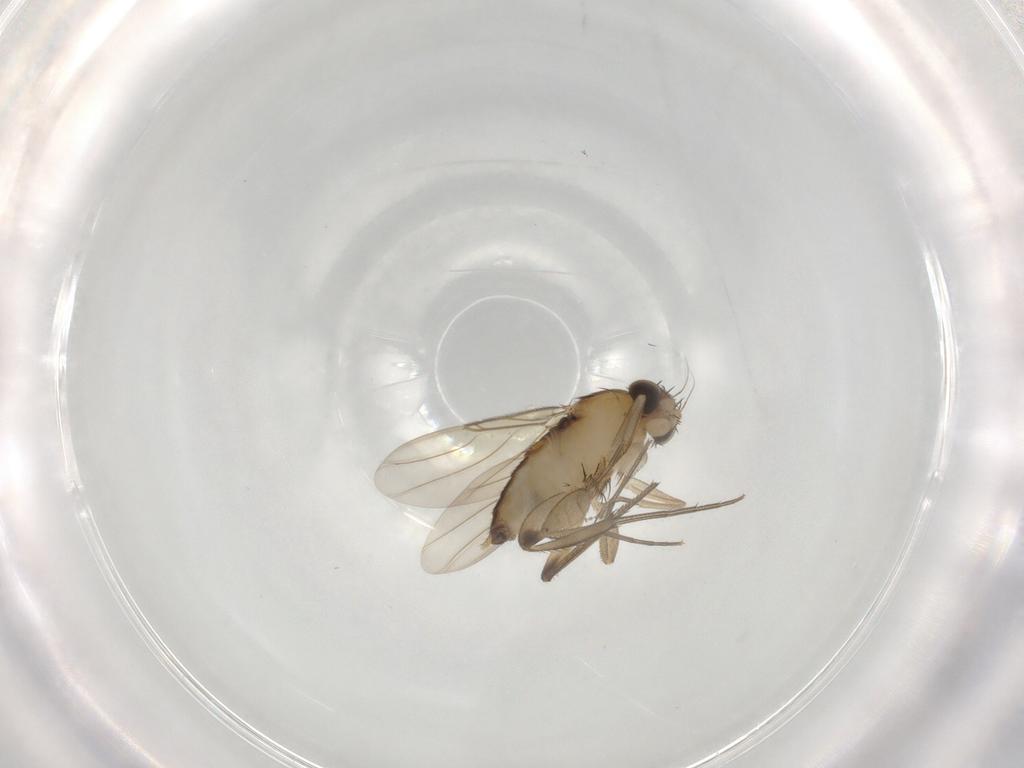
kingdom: Animalia
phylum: Arthropoda
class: Insecta
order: Diptera
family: Phoridae
